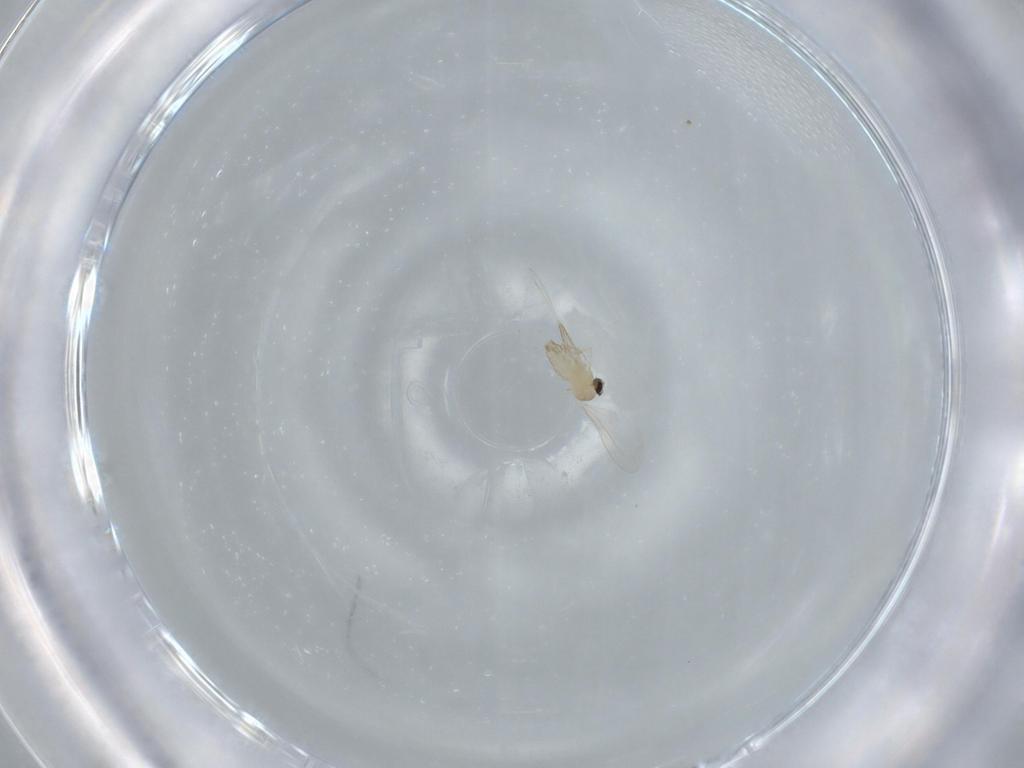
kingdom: Animalia
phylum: Arthropoda
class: Insecta
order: Diptera
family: Cecidomyiidae
